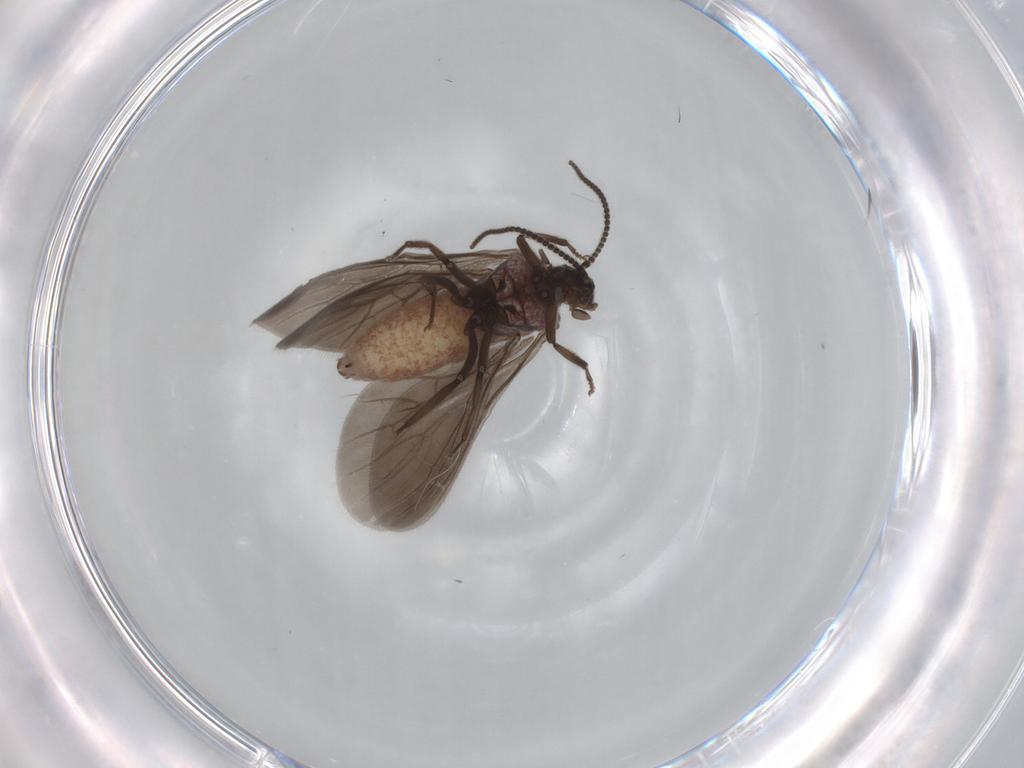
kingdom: Animalia
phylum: Arthropoda
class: Insecta
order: Neuroptera
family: Coniopterygidae
